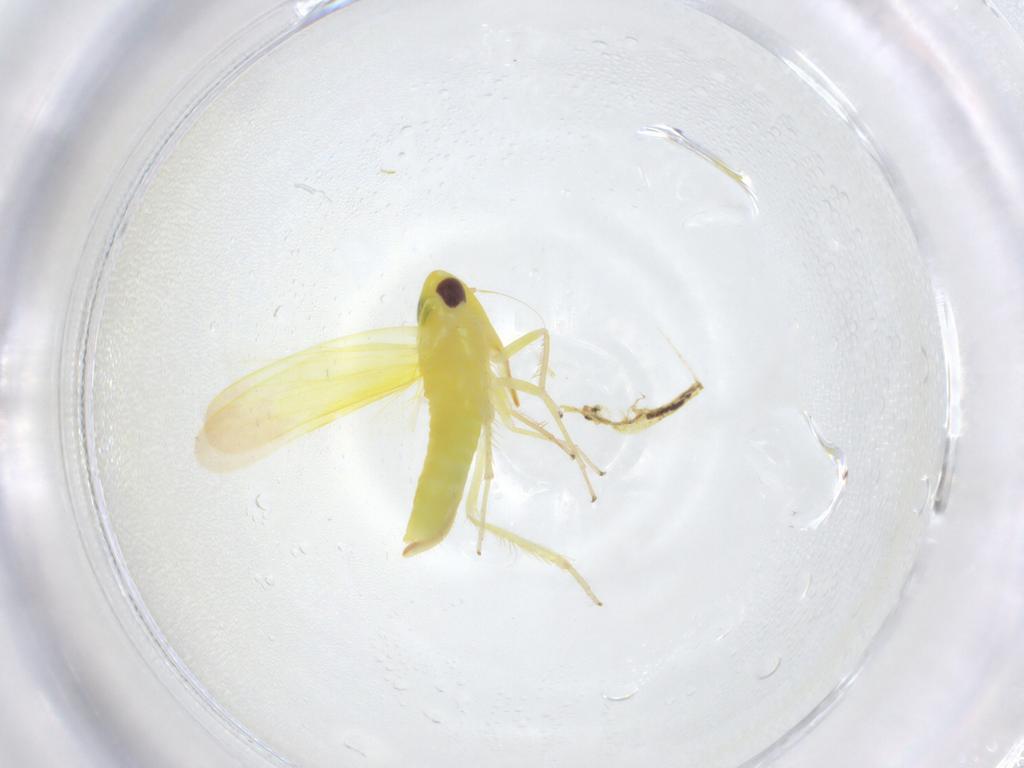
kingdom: Animalia
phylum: Arthropoda
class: Insecta
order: Hemiptera
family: Cicadellidae
